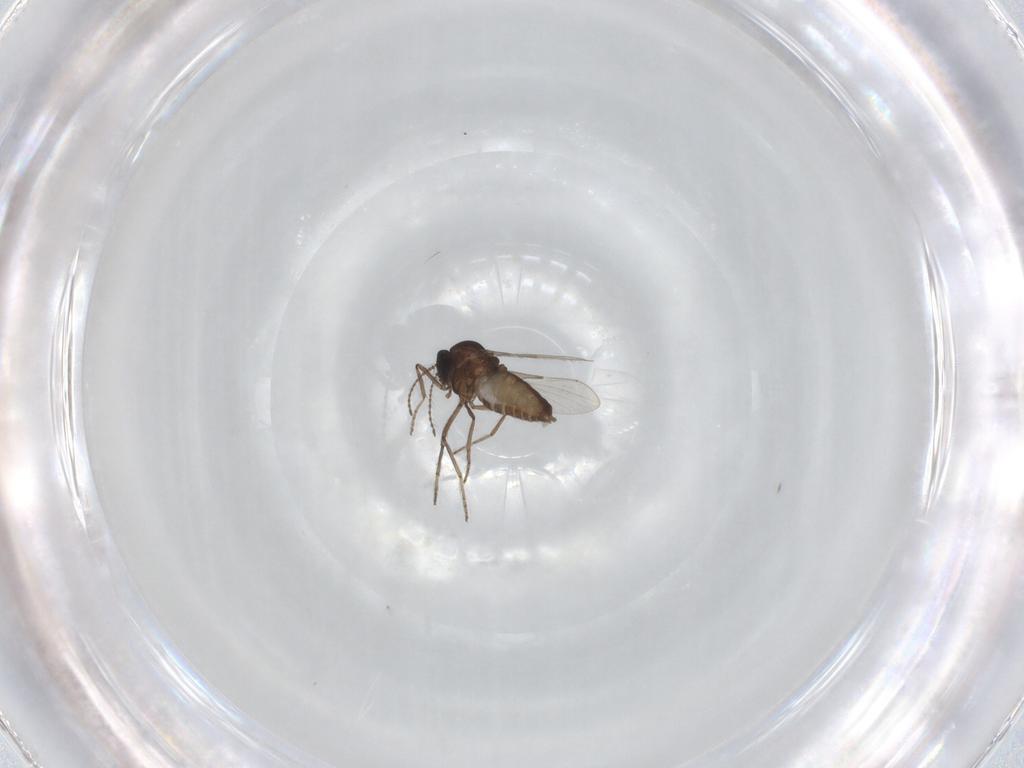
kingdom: Animalia
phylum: Arthropoda
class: Insecta
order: Diptera
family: Ceratopogonidae
